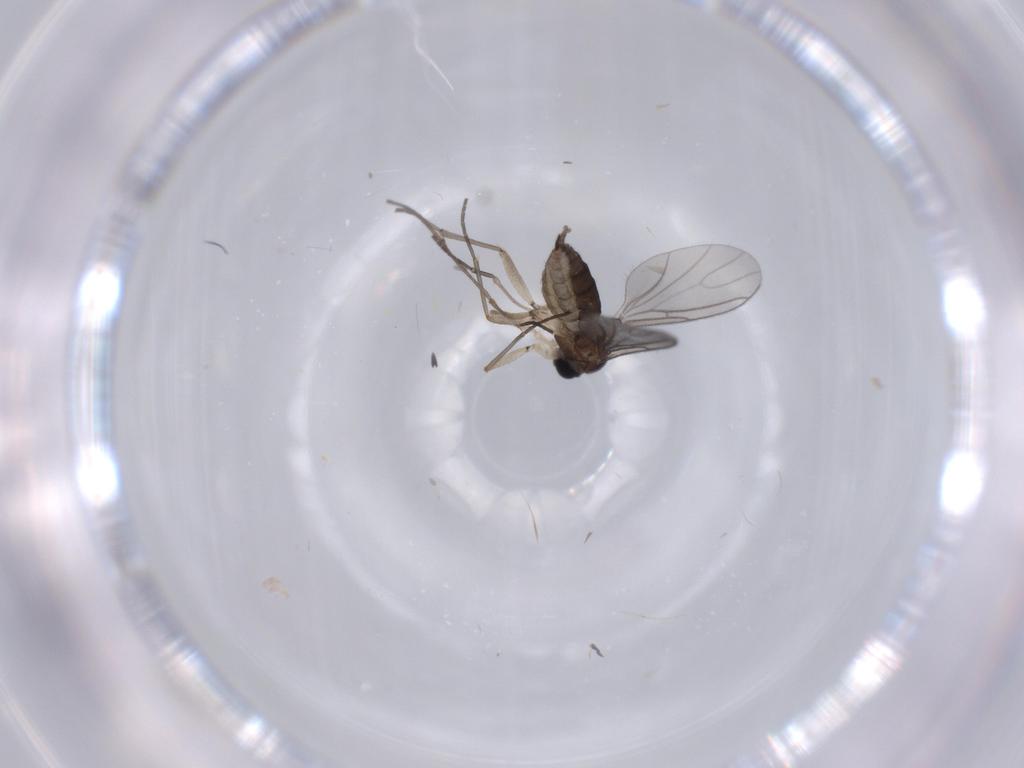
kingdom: Animalia
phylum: Arthropoda
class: Insecta
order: Diptera
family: Sciaridae
